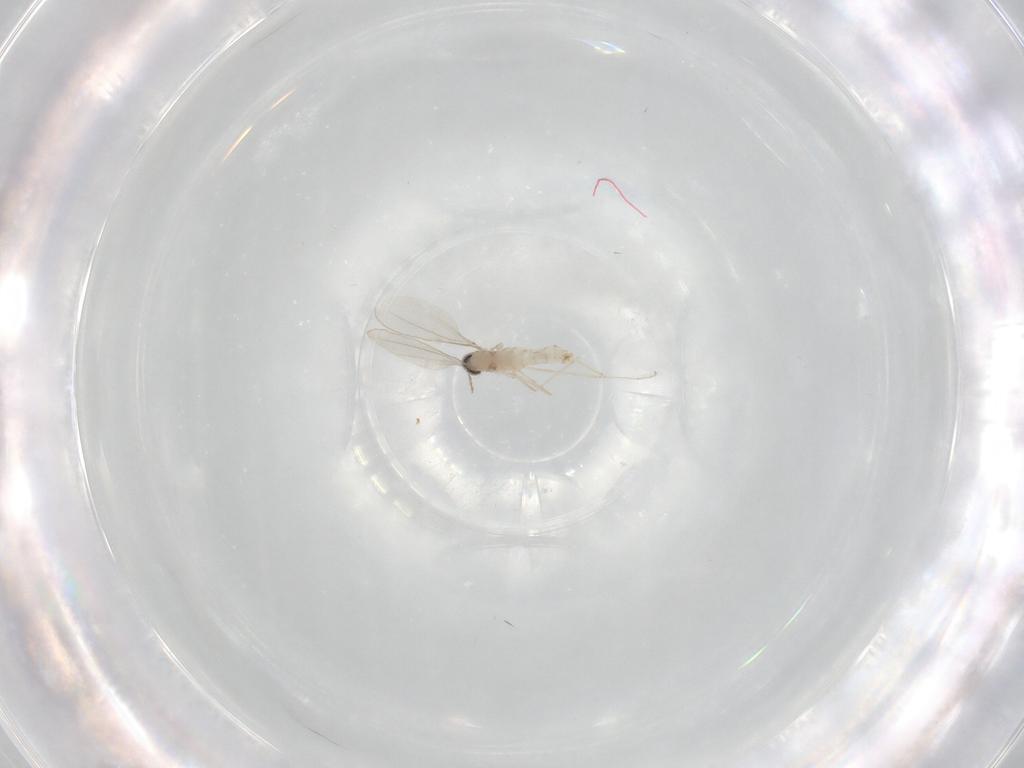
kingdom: Animalia
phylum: Arthropoda
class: Insecta
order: Diptera
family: Cecidomyiidae
